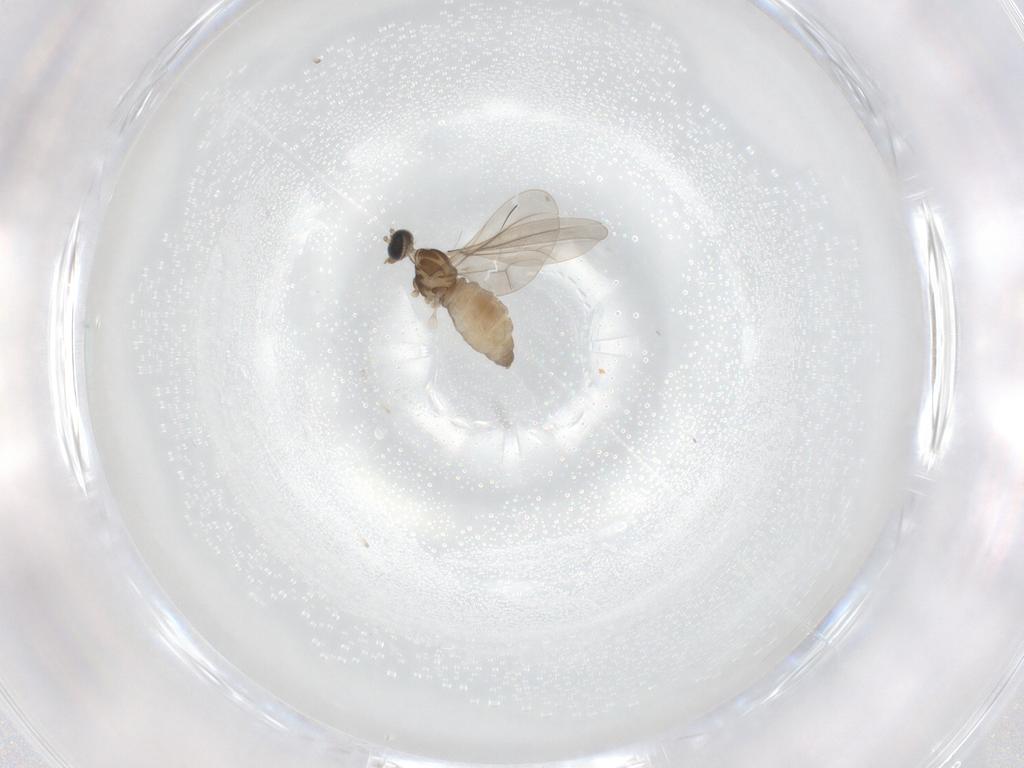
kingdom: Animalia
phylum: Arthropoda
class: Insecta
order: Diptera
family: Cecidomyiidae
